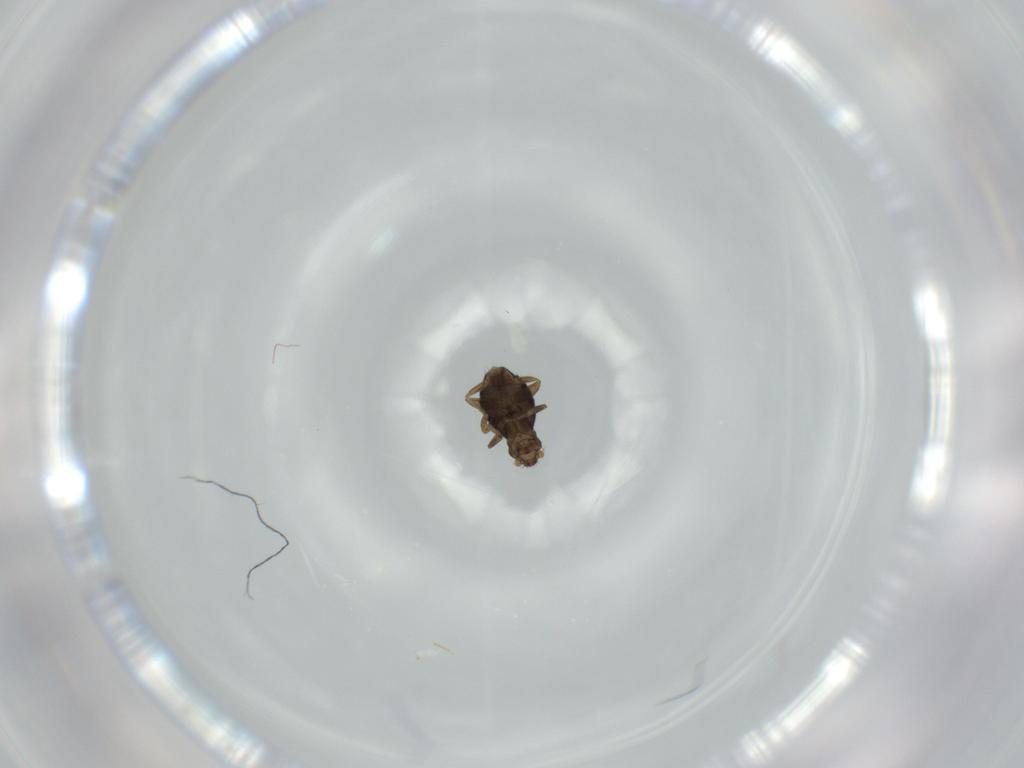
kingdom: Animalia
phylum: Arthropoda
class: Insecta
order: Diptera
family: Phoridae
